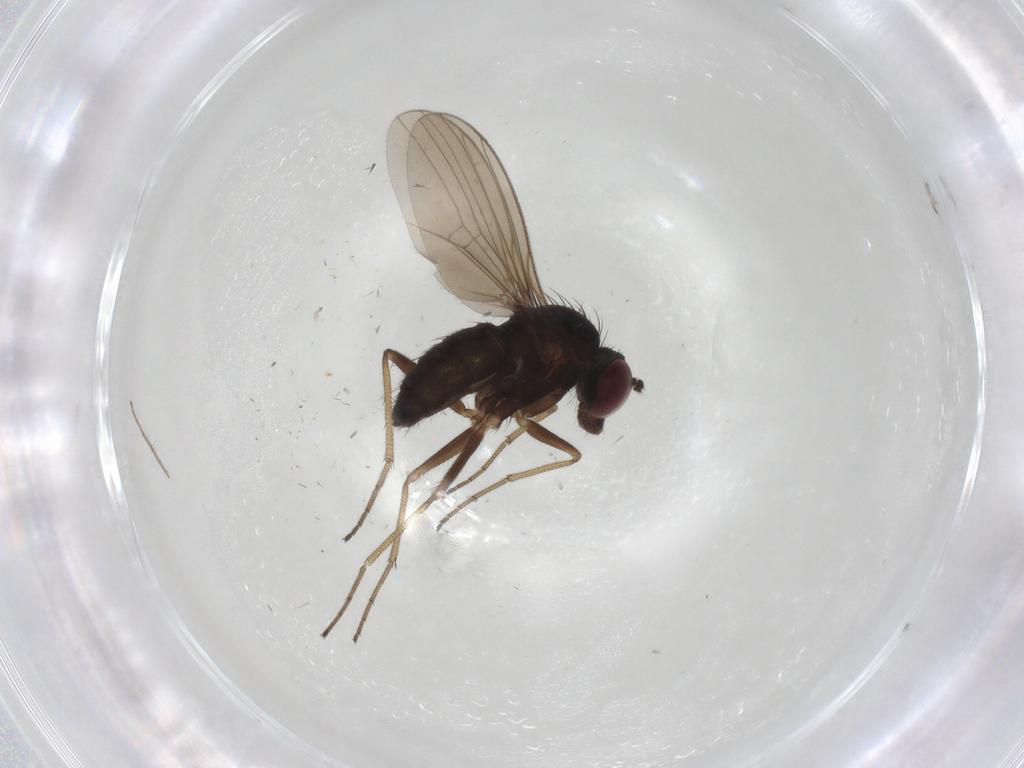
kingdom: Animalia
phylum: Arthropoda
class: Insecta
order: Diptera
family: Dolichopodidae
